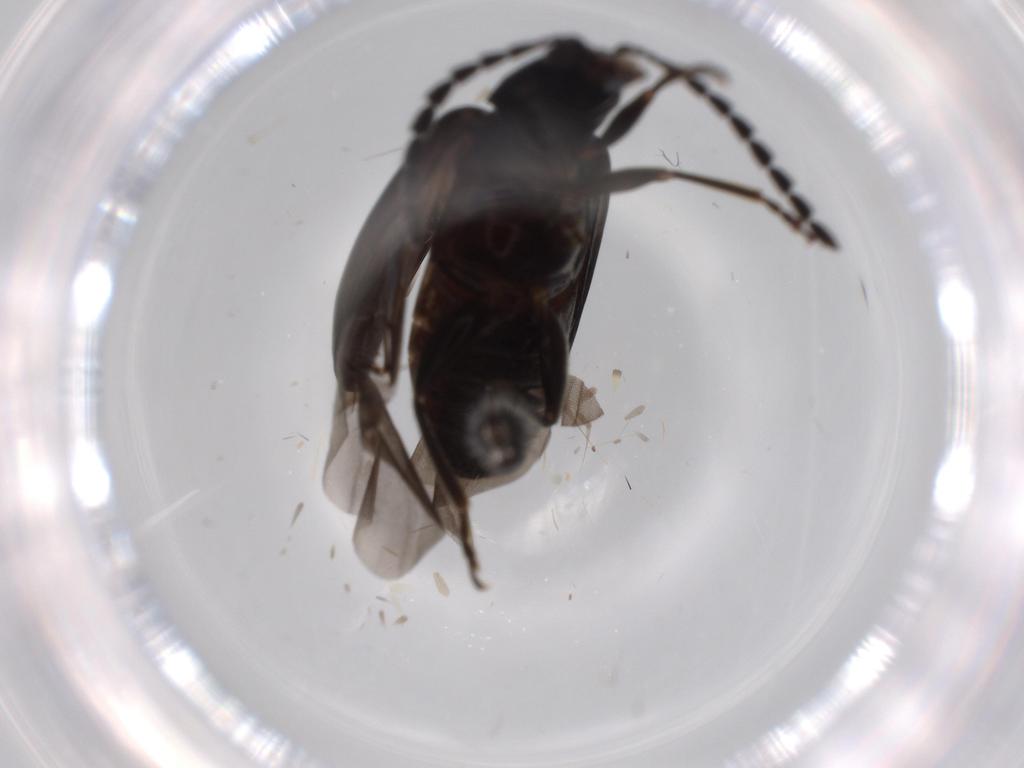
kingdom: Animalia
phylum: Arthropoda
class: Insecta
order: Coleoptera
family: Chrysomelidae
